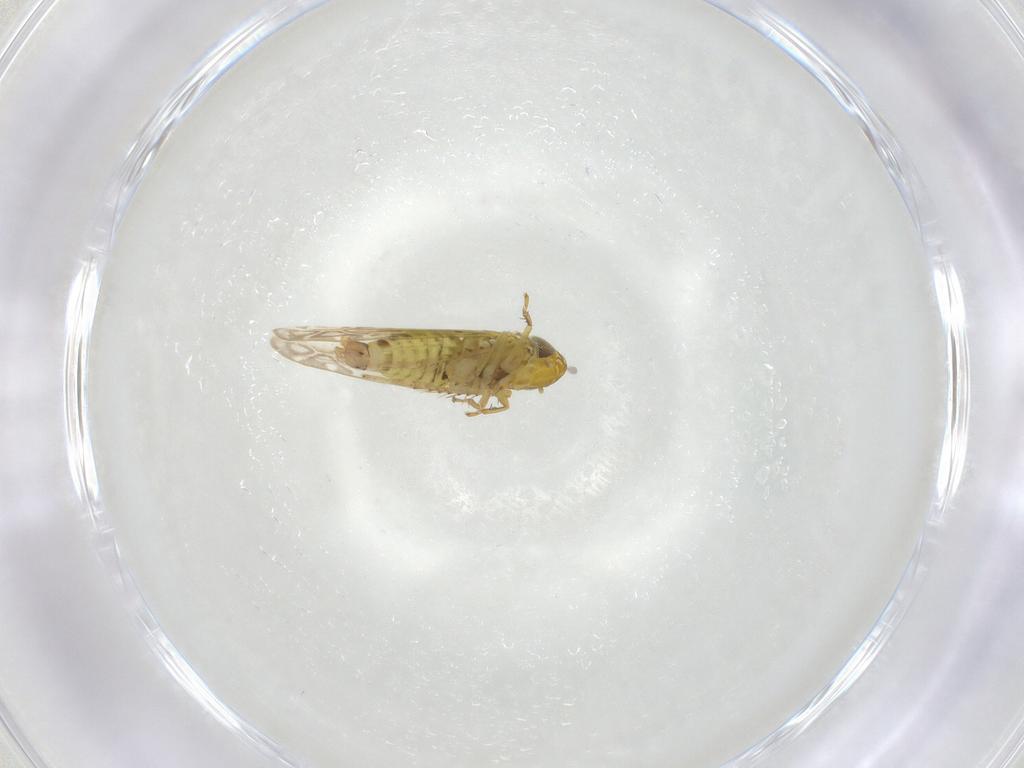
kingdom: Animalia
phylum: Arthropoda
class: Insecta
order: Hemiptera
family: Cicadellidae
